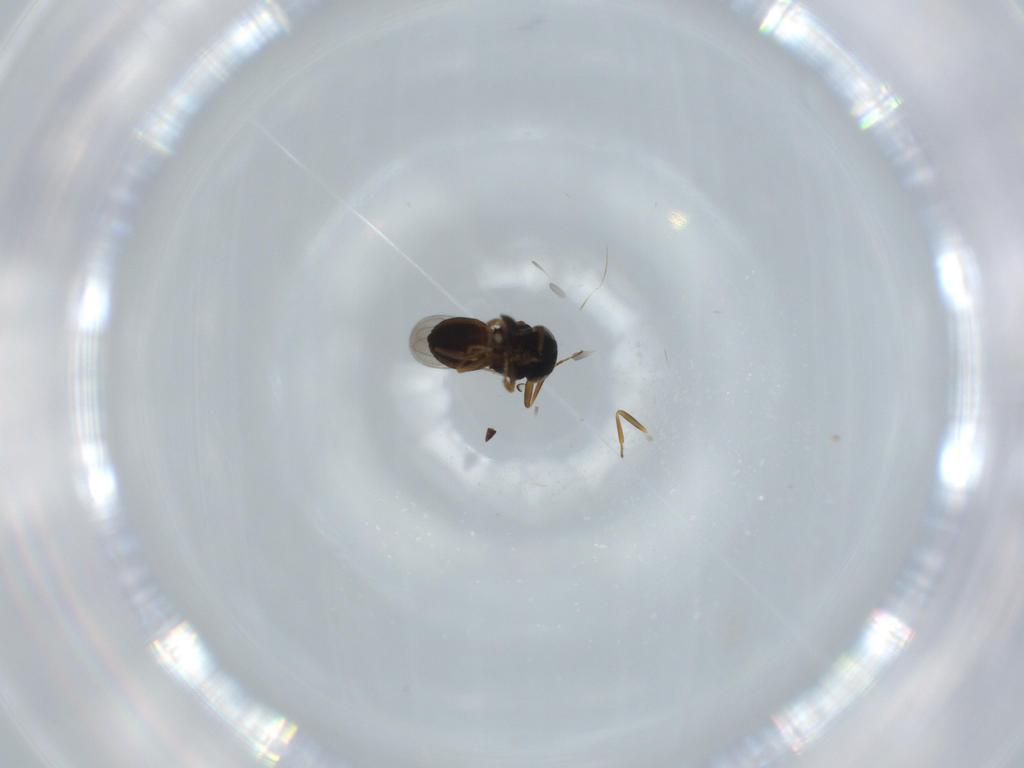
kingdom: Animalia
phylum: Arthropoda
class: Insecta
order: Hymenoptera
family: Scelionidae
